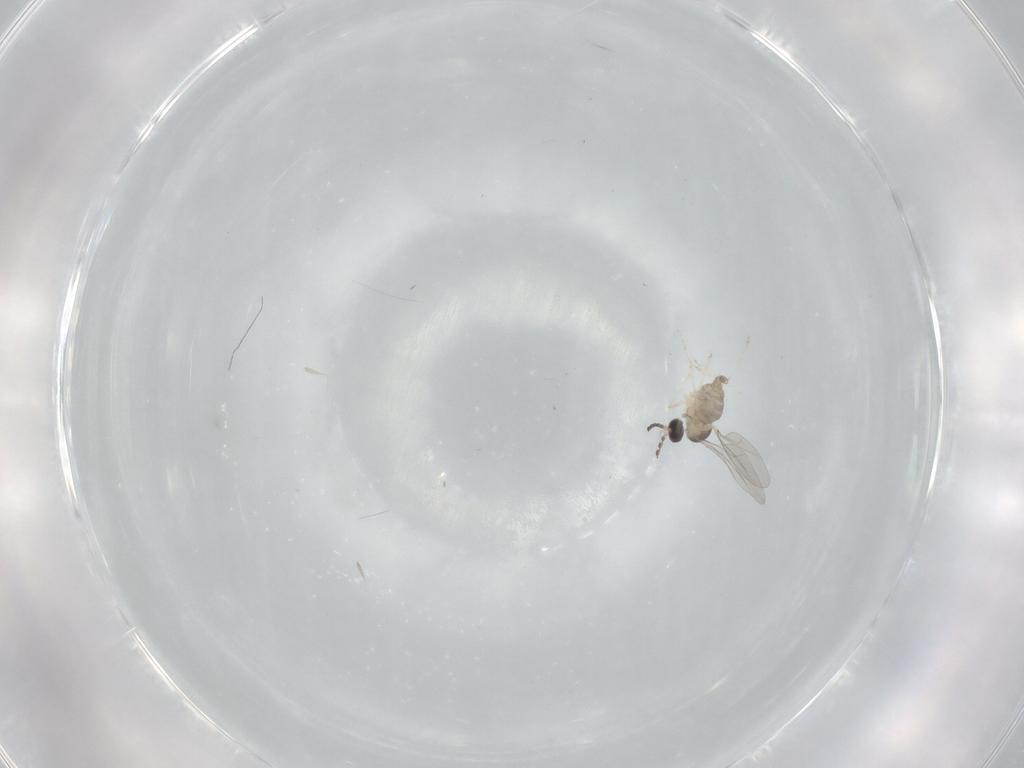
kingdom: Animalia
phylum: Arthropoda
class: Insecta
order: Diptera
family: Cecidomyiidae
